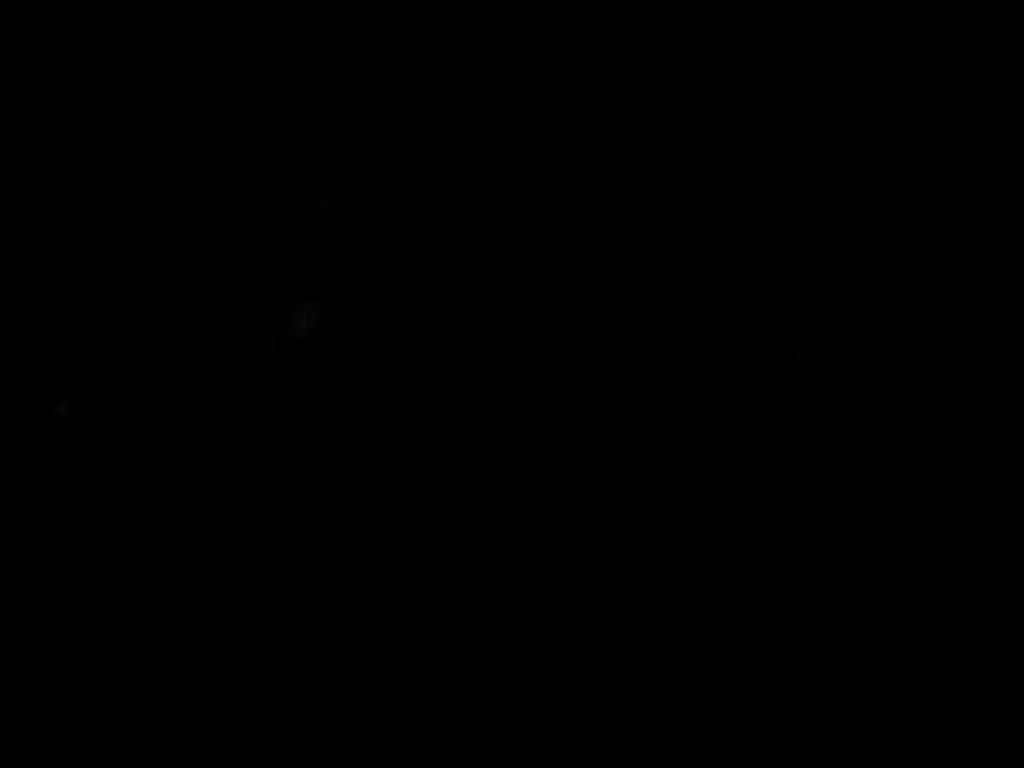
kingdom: Animalia
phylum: Arthropoda
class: Insecta
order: Hymenoptera
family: Formicidae
